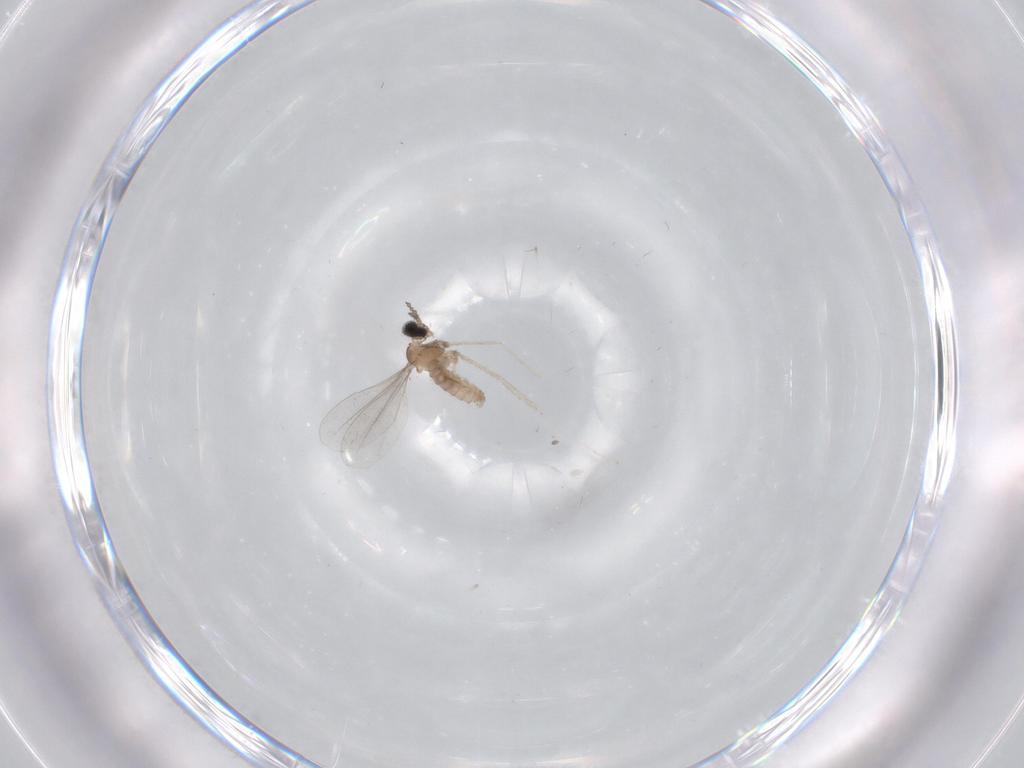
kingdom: Animalia
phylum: Arthropoda
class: Insecta
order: Diptera
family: Cecidomyiidae
